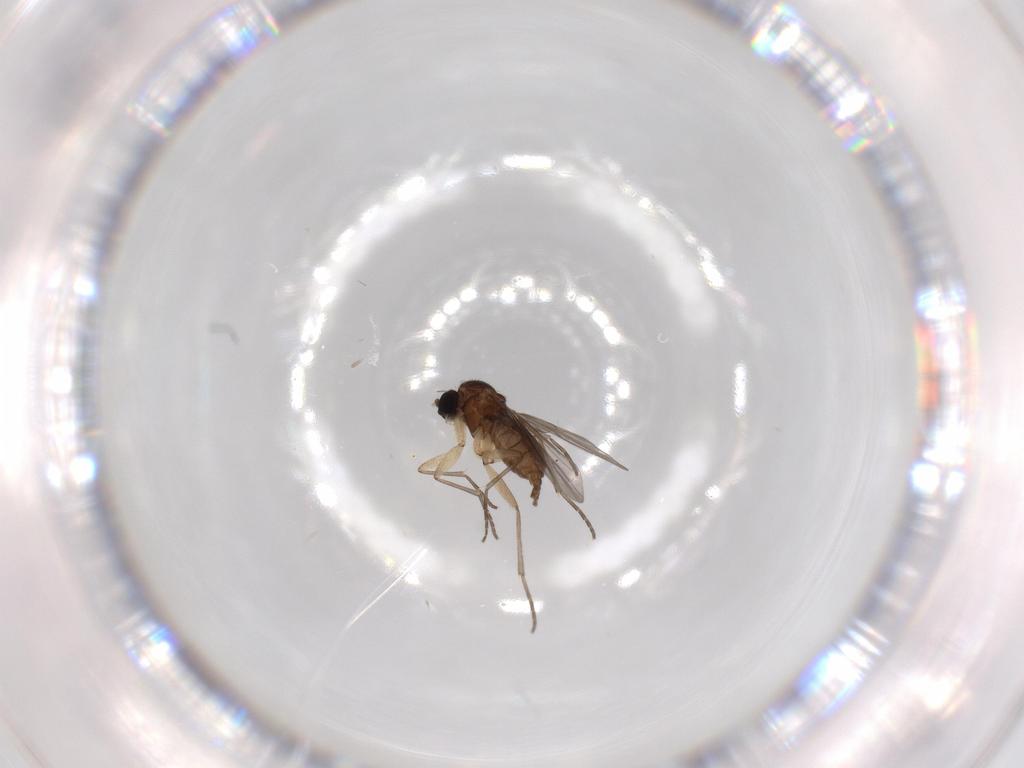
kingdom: Animalia
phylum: Arthropoda
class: Insecta
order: Diptera
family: Sciaridae
